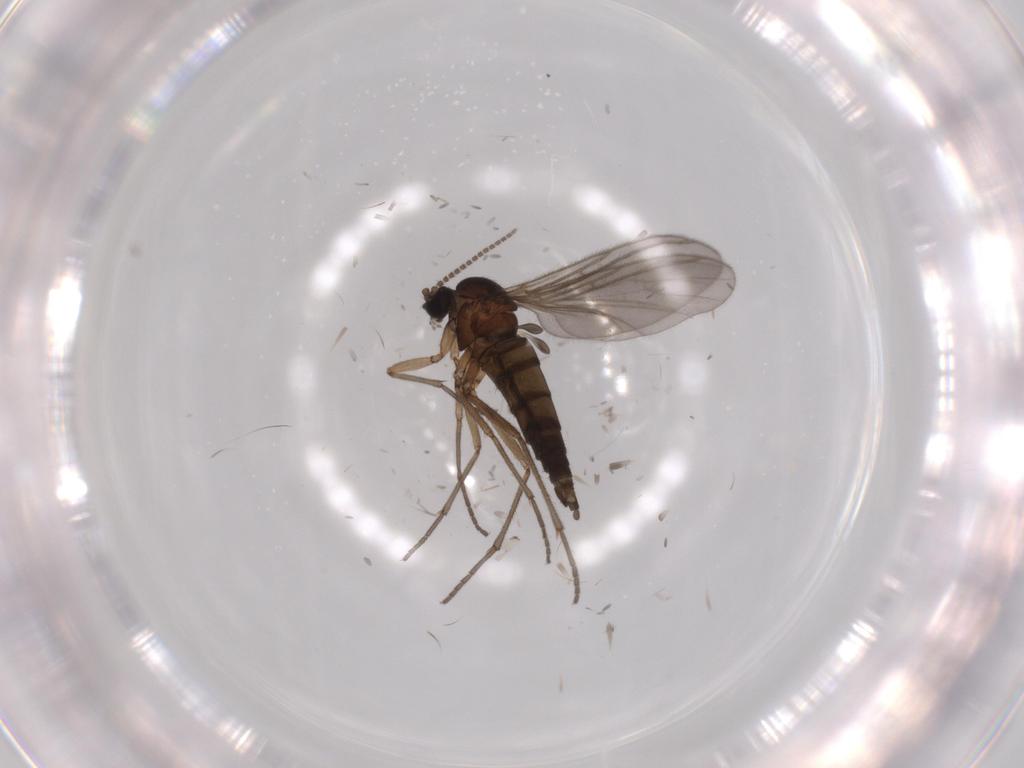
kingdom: Animalia
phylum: Arthropoda
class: Insecta
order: Diptera
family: Sciaridae
